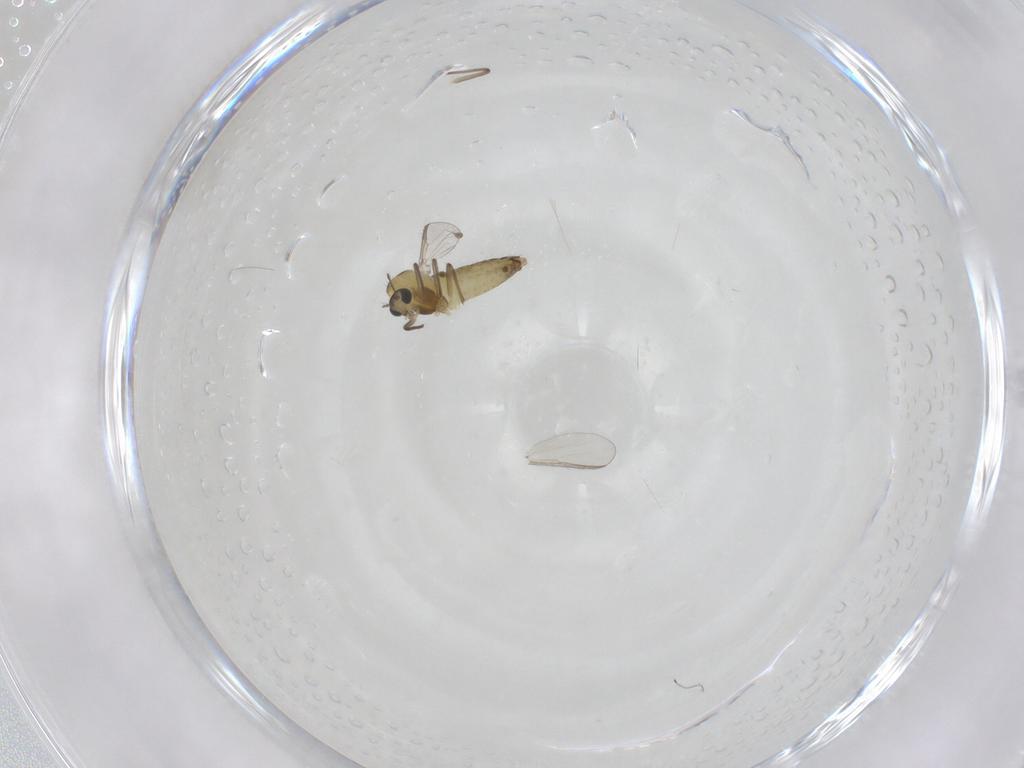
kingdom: Animalia
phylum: Arthropoda
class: Insecta
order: Diptera
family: Chironomidae
